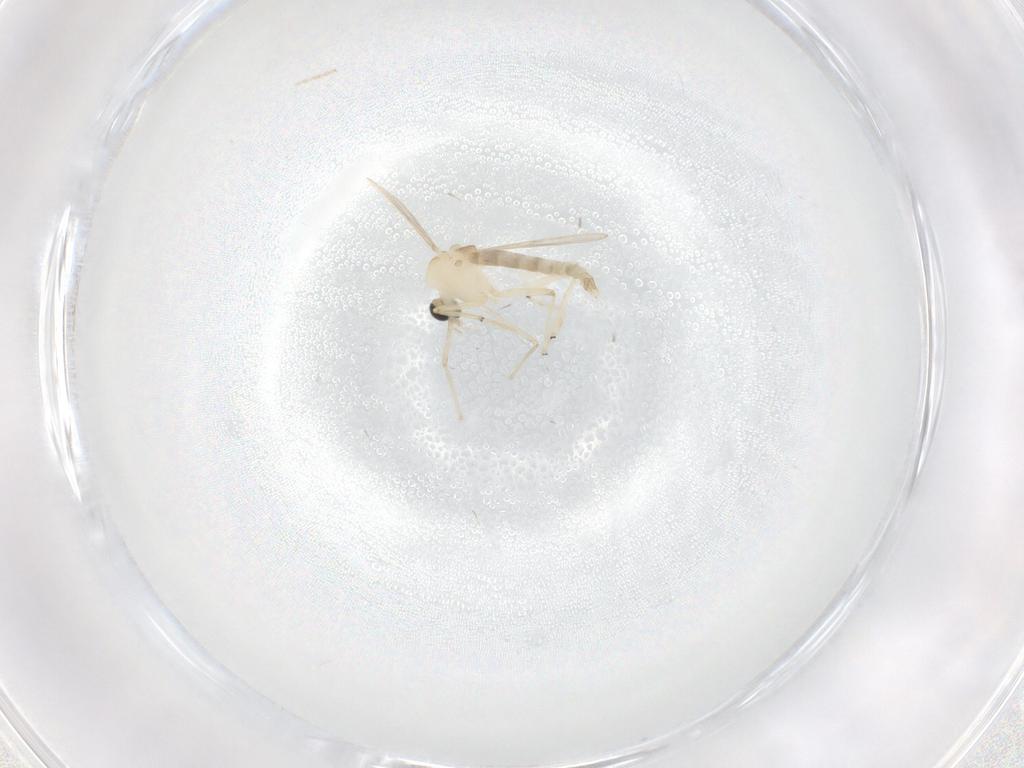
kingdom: Animalia
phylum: Arthropoda
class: Insecta
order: Diptera
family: Chironomidae
